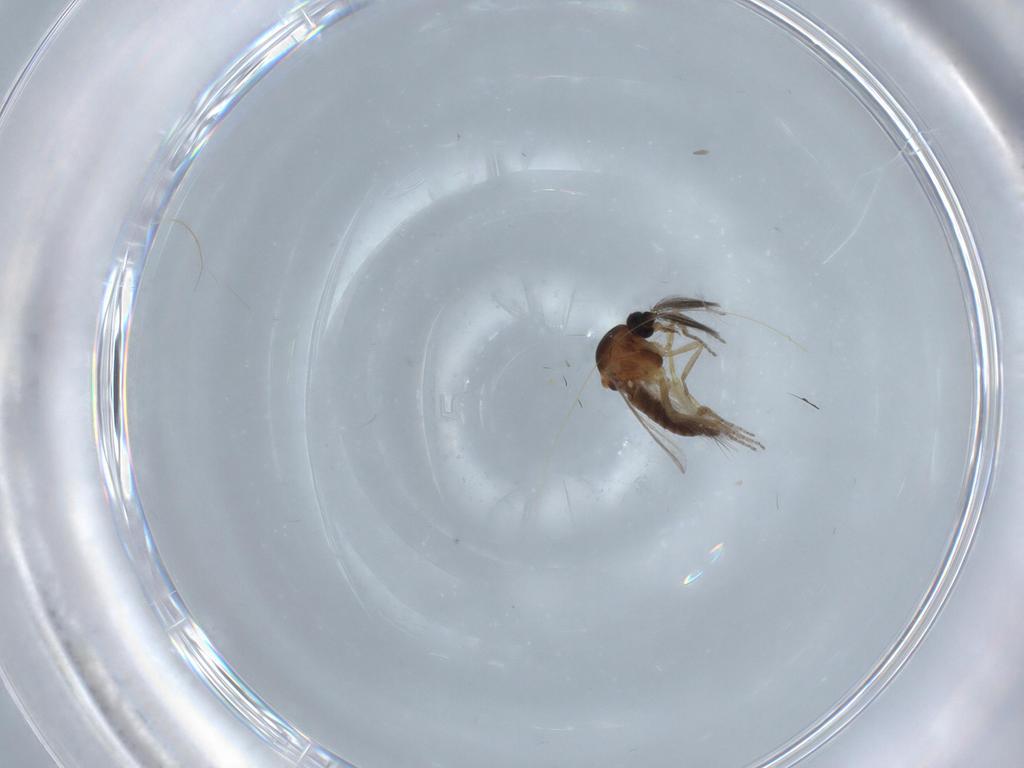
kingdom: Animalia
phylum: Arthropoda
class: Insecta
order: Diptera
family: Ceratopogonidae
